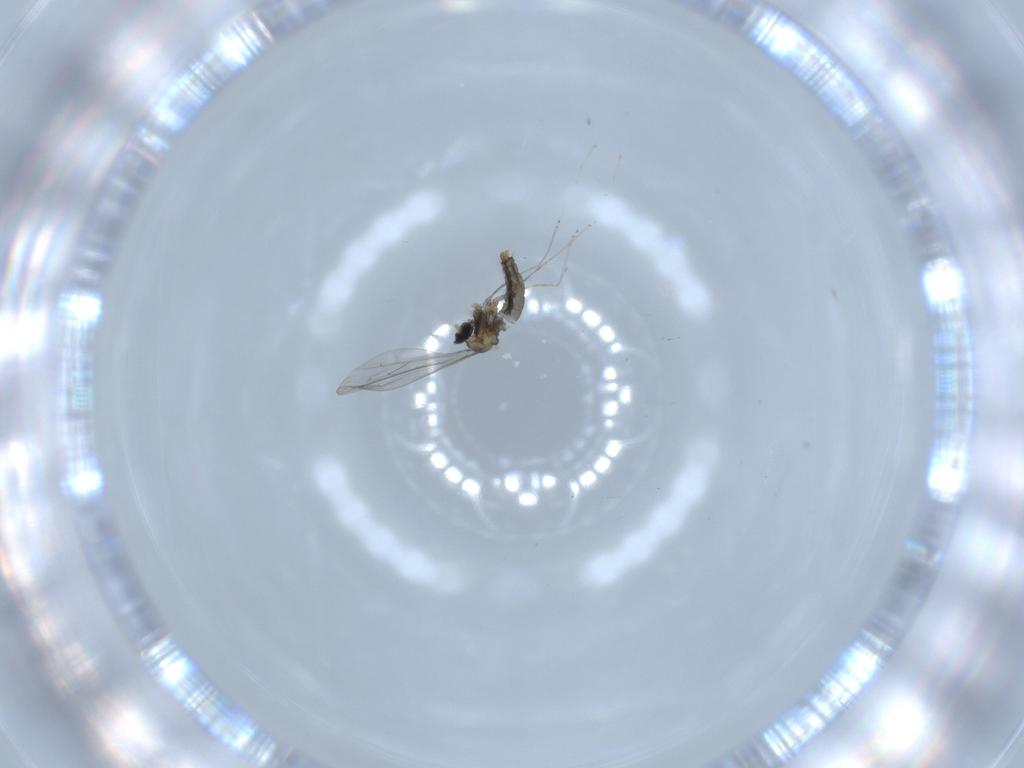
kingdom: Animalia
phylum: Arthropoda
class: Insecta
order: Diptera
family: Cecidomyiidae
